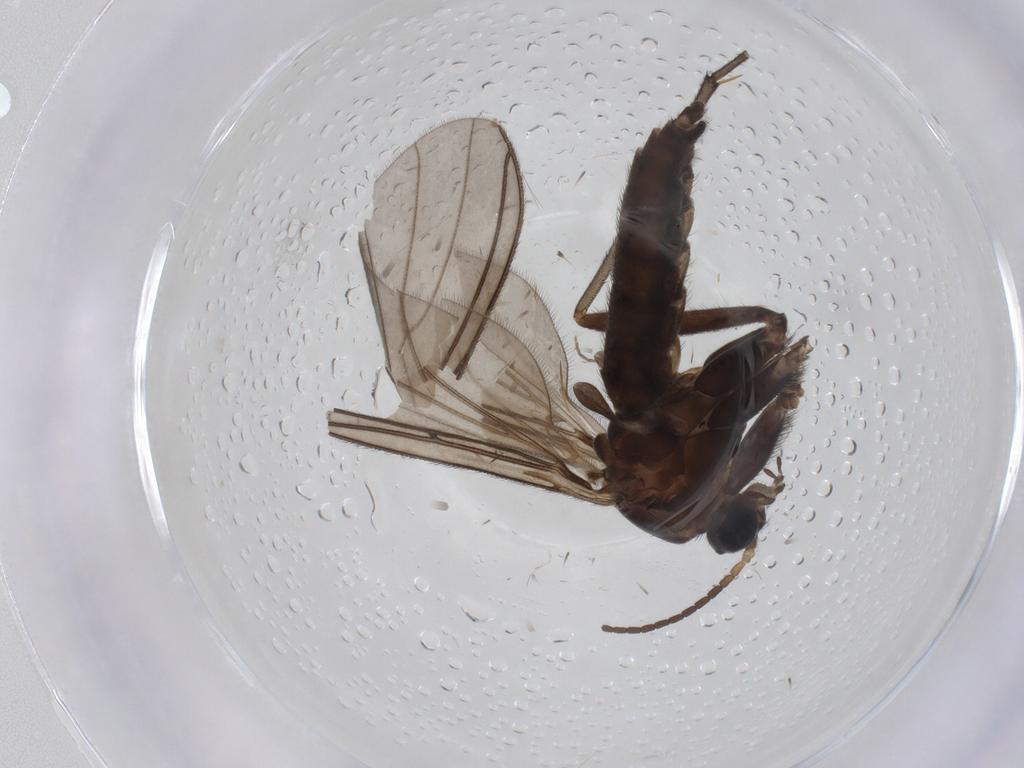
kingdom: Animalia
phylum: Arthropoda
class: Insecta
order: Diptera
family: Sciaridae
